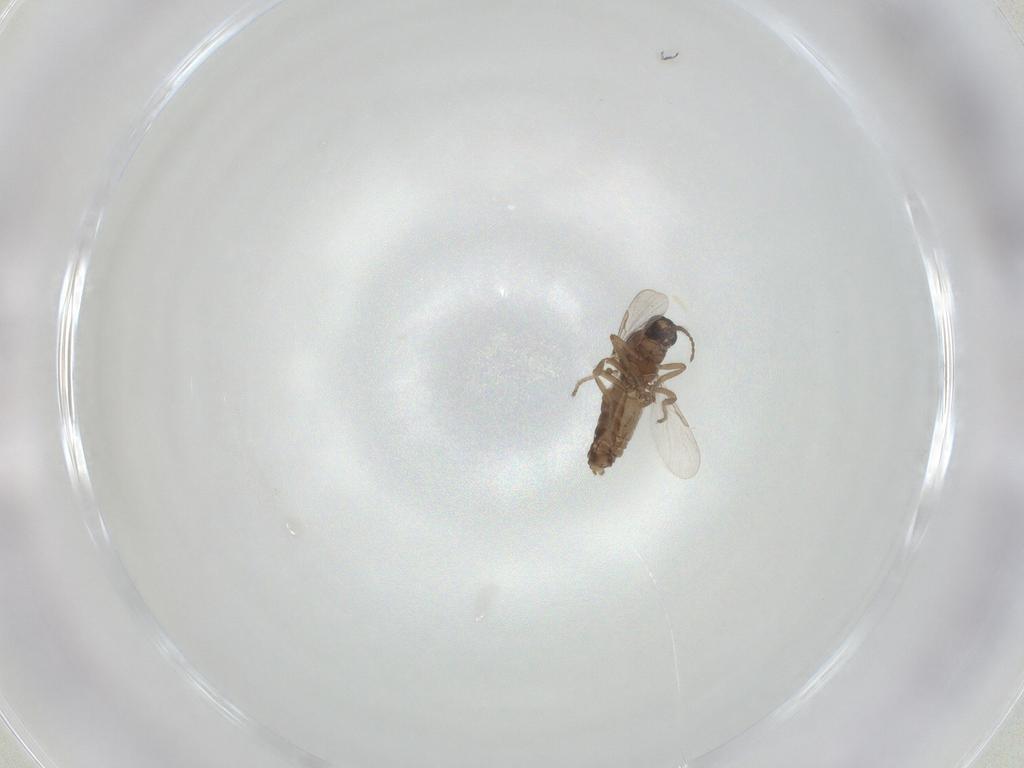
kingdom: Animalia
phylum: Arthropoda
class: Insecta
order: Diptera
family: Ceratopogonidae
